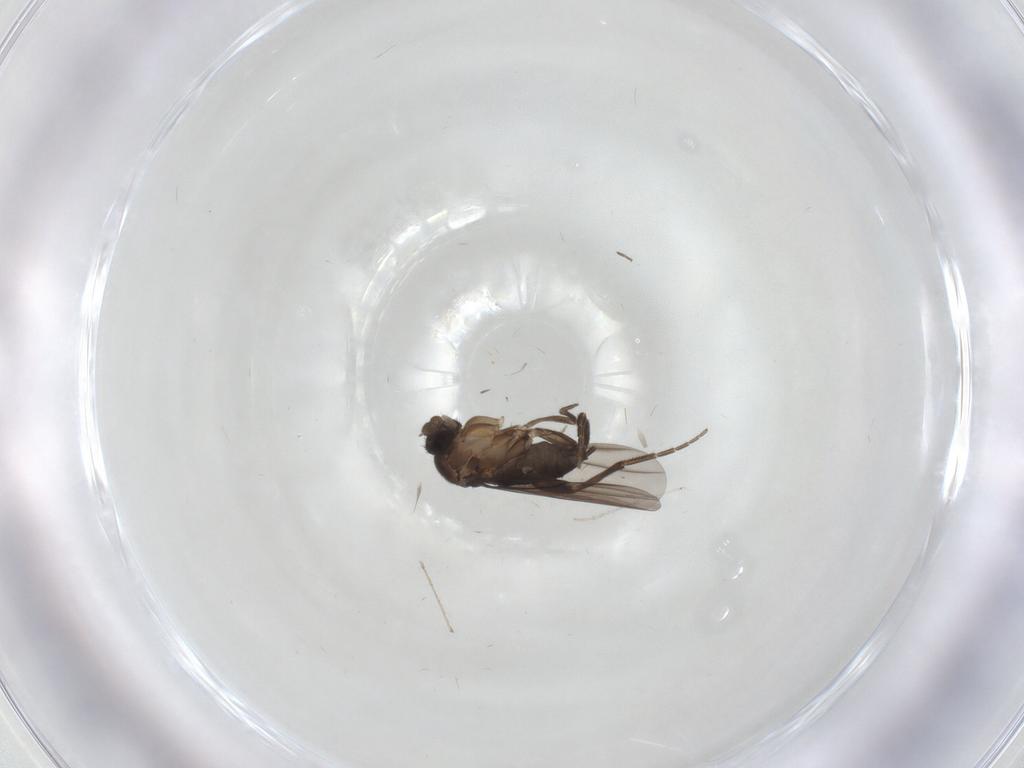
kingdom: Animalia
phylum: Arthropoda
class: Insecta
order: Diptera
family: Phoridae
